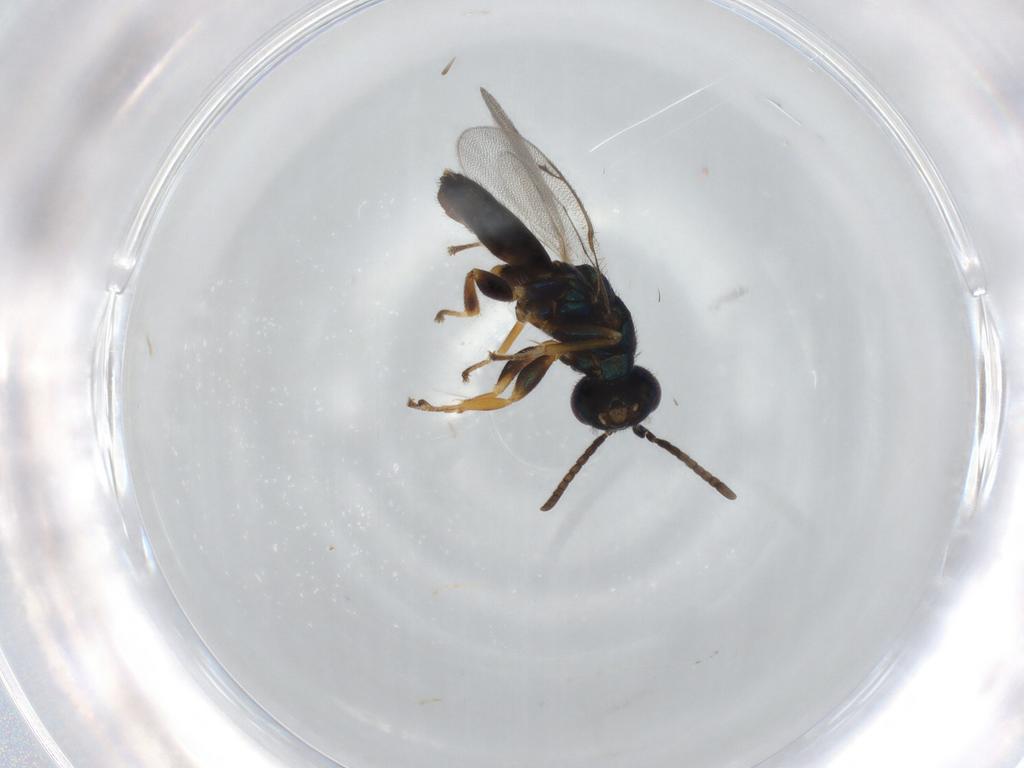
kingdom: Animalia
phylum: Arthropoda
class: Insecta
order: Hymenoptera
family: Eupelmidae
